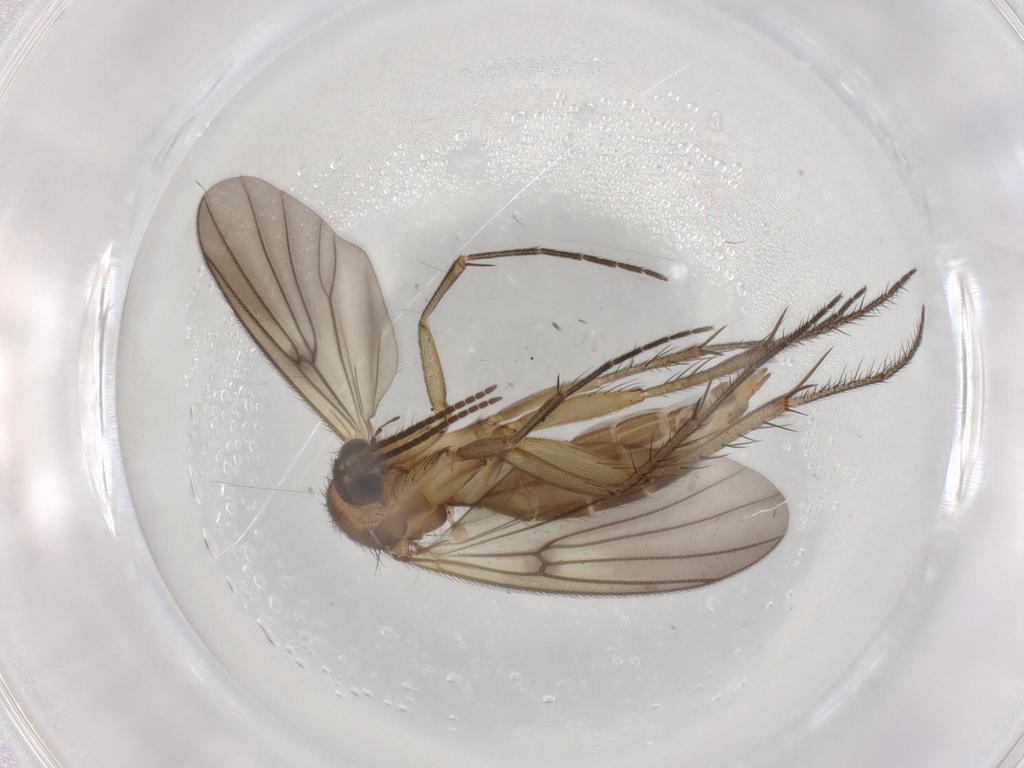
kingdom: Animalia
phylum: Arthropoda
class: Insecta
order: Diptera
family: Mycetophilidae
